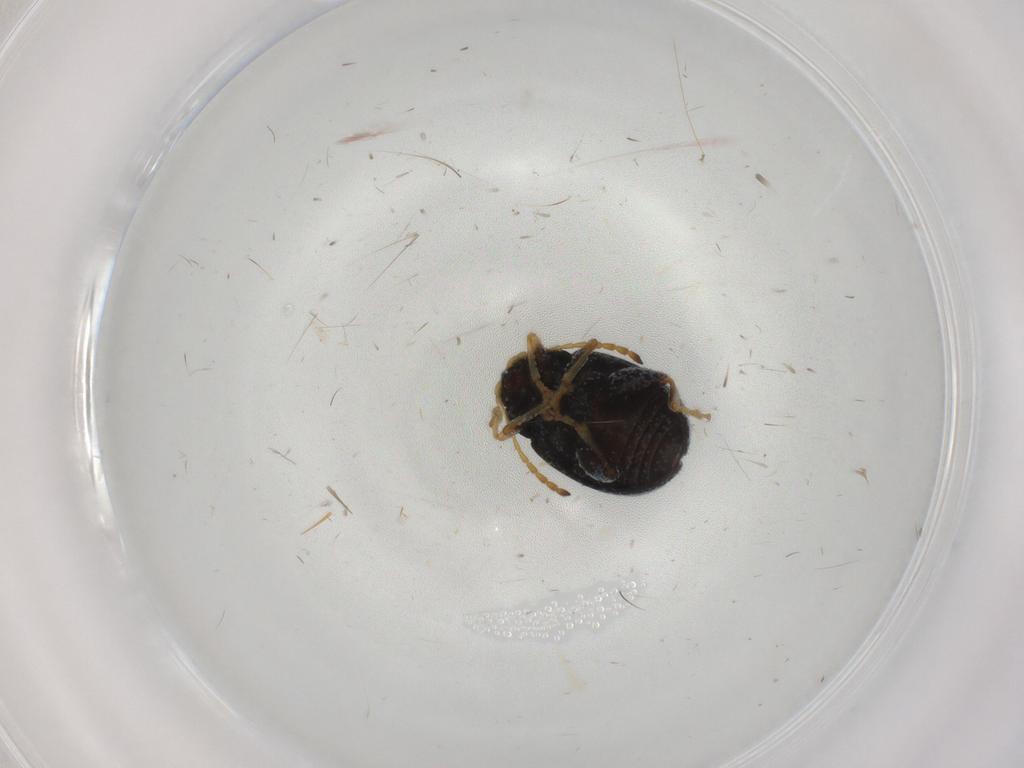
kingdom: Animalia
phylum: Arthropoda
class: Insecta
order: Coleoptera
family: Chrysomelidae
